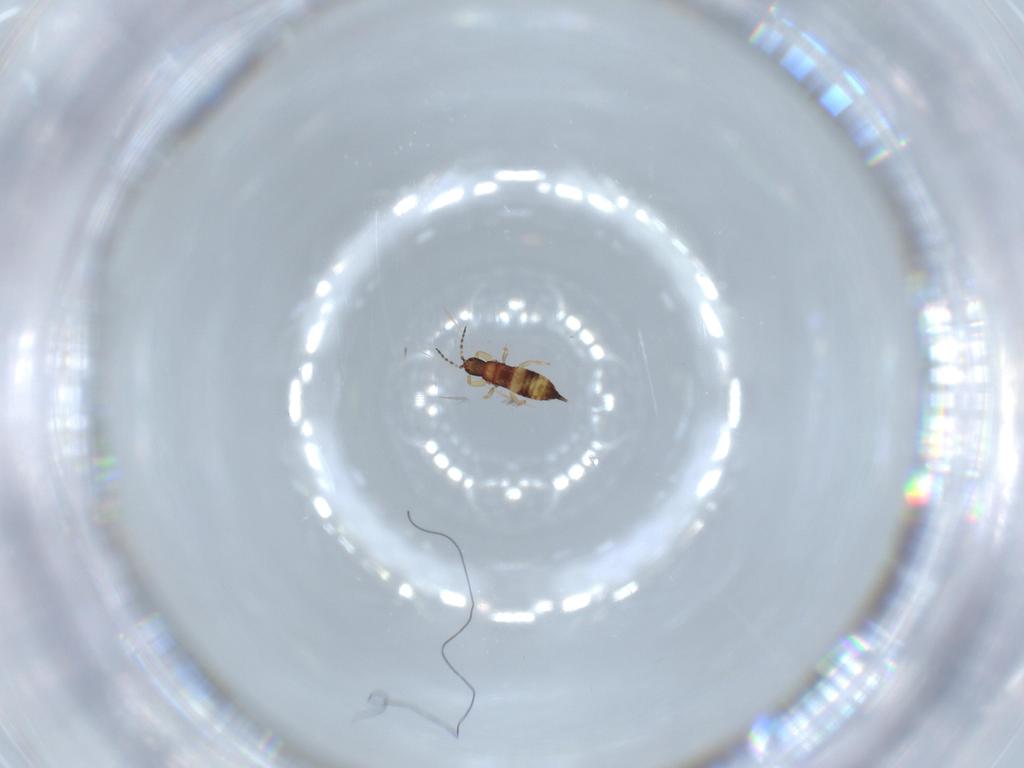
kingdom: Animalia
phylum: Arthropoda
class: Insecta
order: Thysanoptera
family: Phlaeothripidae
